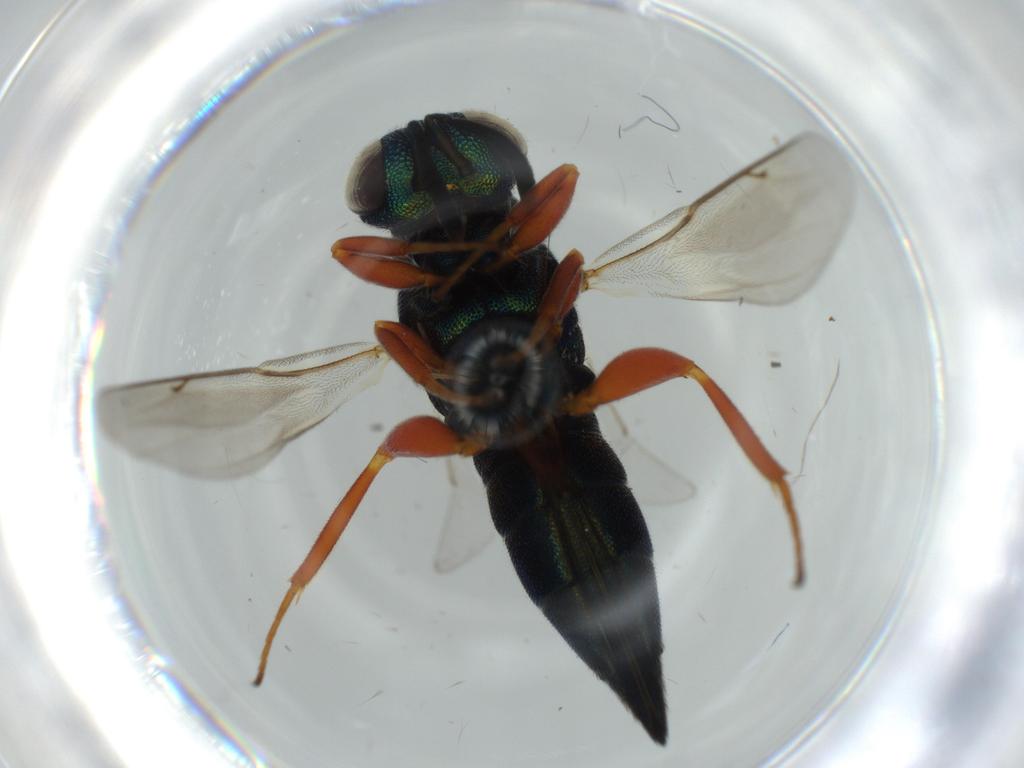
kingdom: Animalia
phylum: Arthropoda
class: Insecta
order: Hymenoptera
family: Lyciscidae
